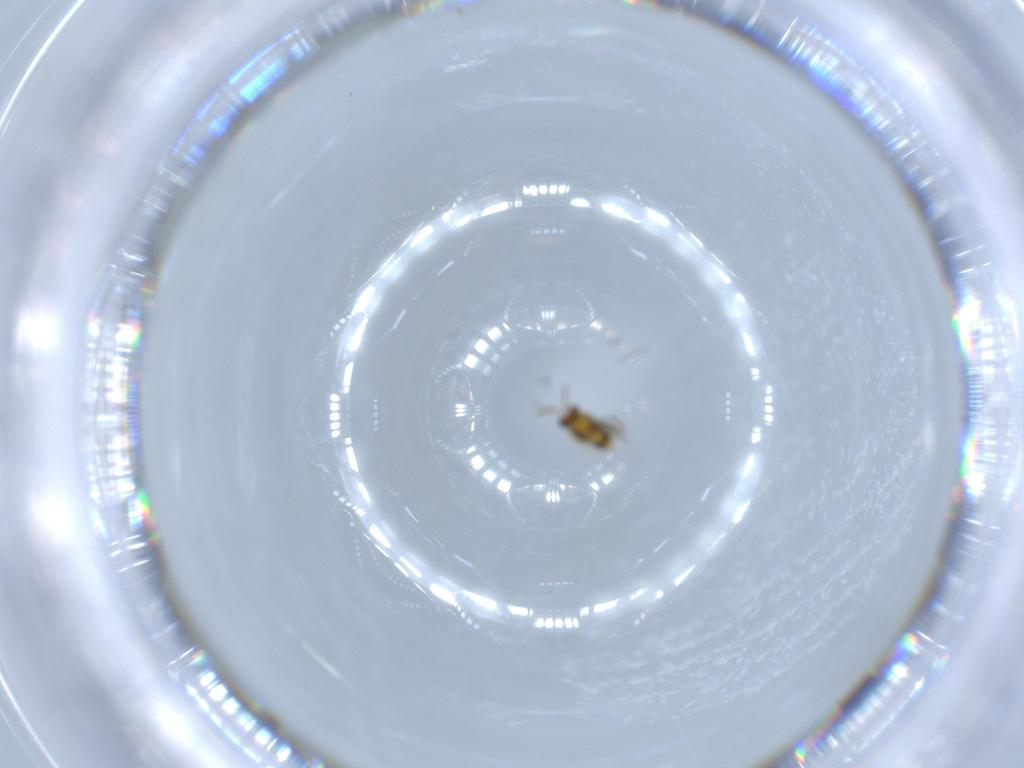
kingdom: Animalia
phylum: Arthropoda
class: Insecta
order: Hymenoptera
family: Aphelinidae
